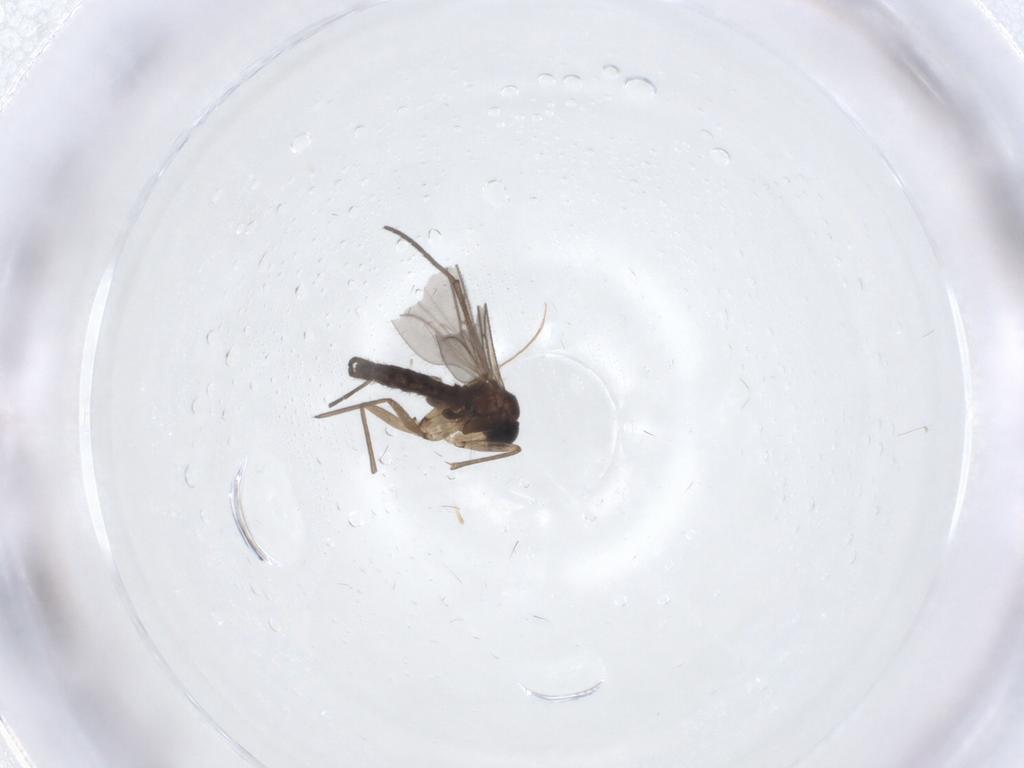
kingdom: Animalia
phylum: Arthropoda
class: Insecta
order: Diptera
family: Sciaridae
